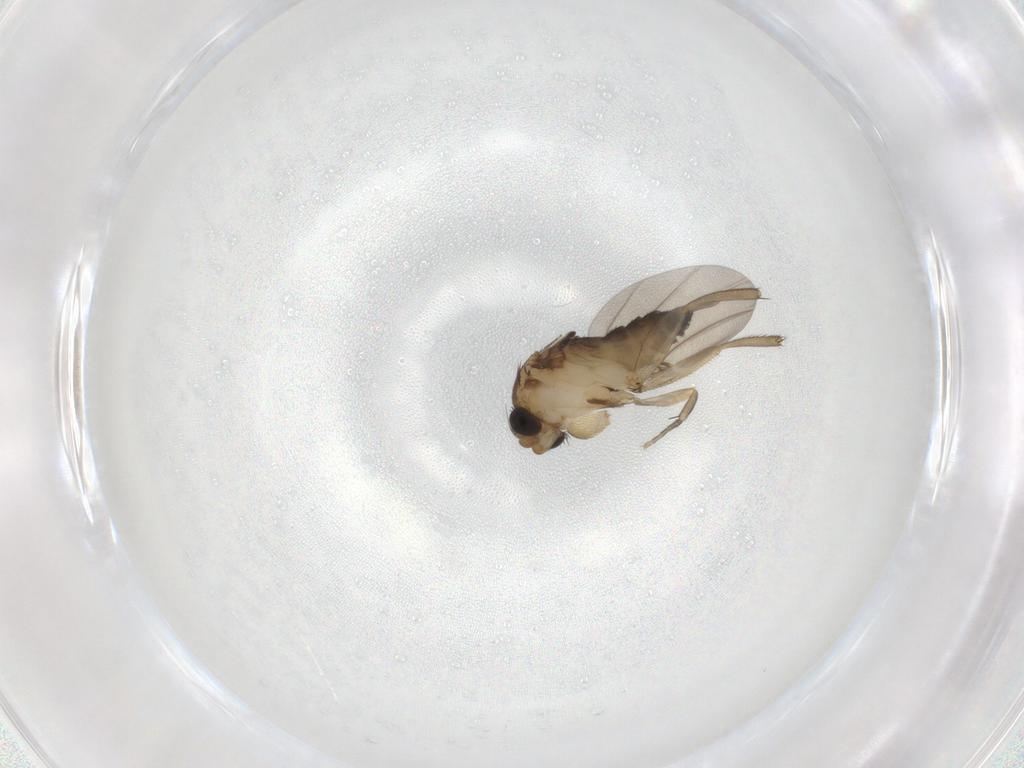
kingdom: Animalia
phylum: Arthropoda
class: Insecta
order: Diptera
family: Phoridae
